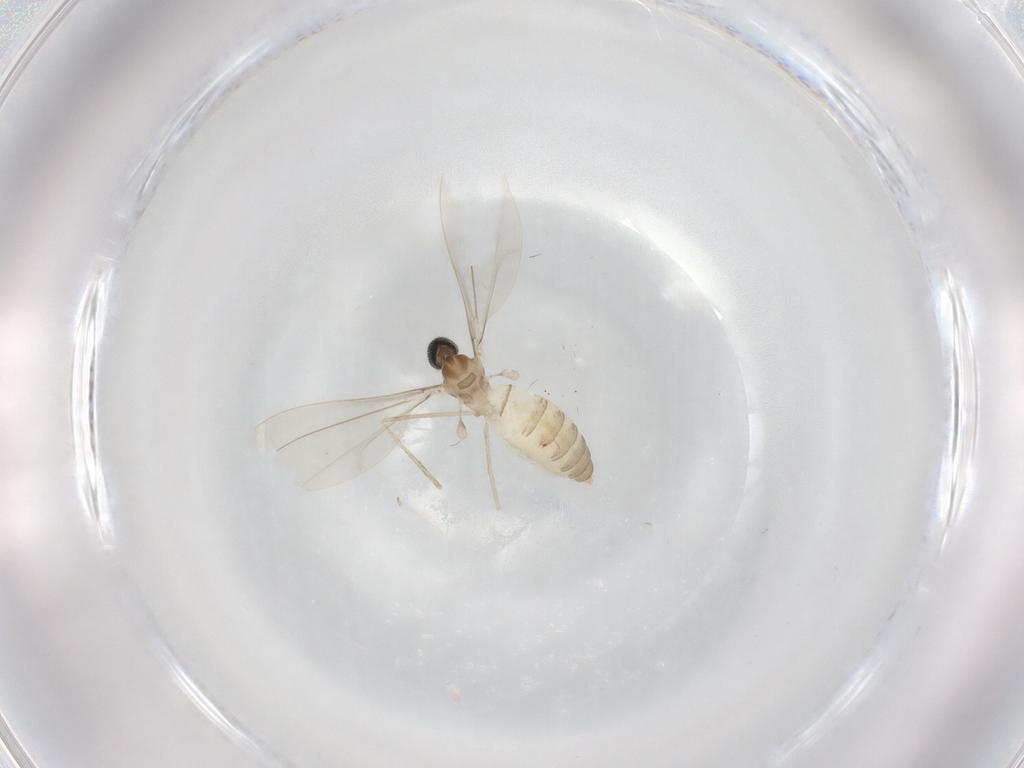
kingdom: Animalia
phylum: Arthropoda
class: Insecta
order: Diptera
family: Cecidomyiidae
